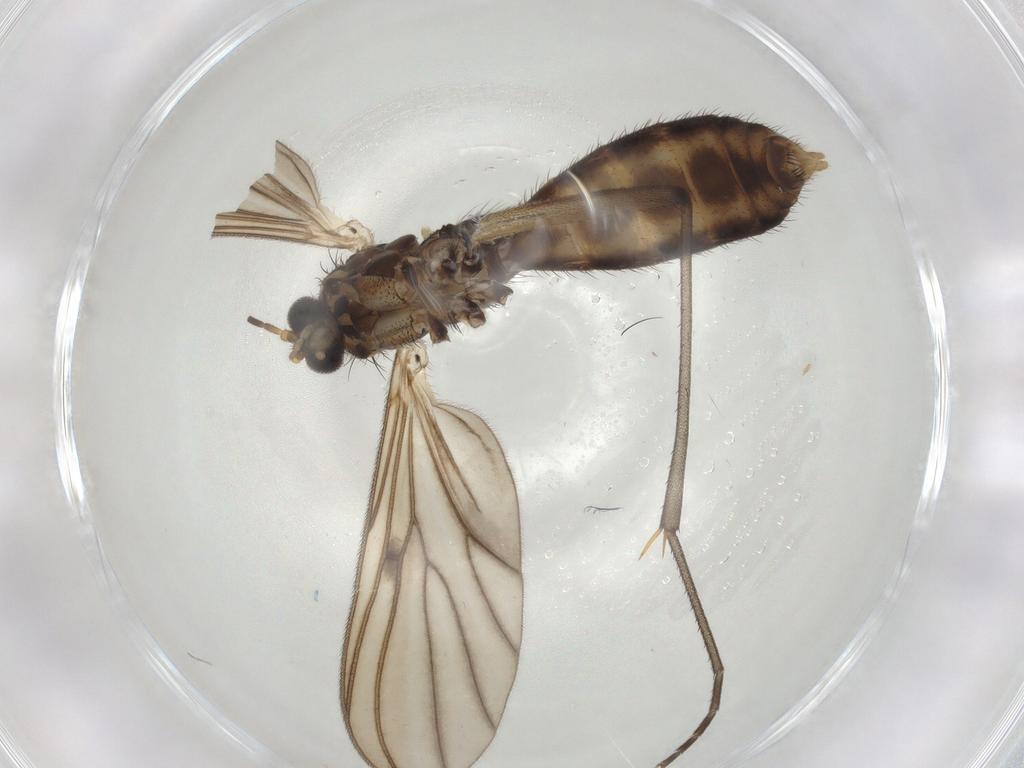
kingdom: Animalia
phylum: Arthropoda
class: Insecta
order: Diptera
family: Mycetophilidae
